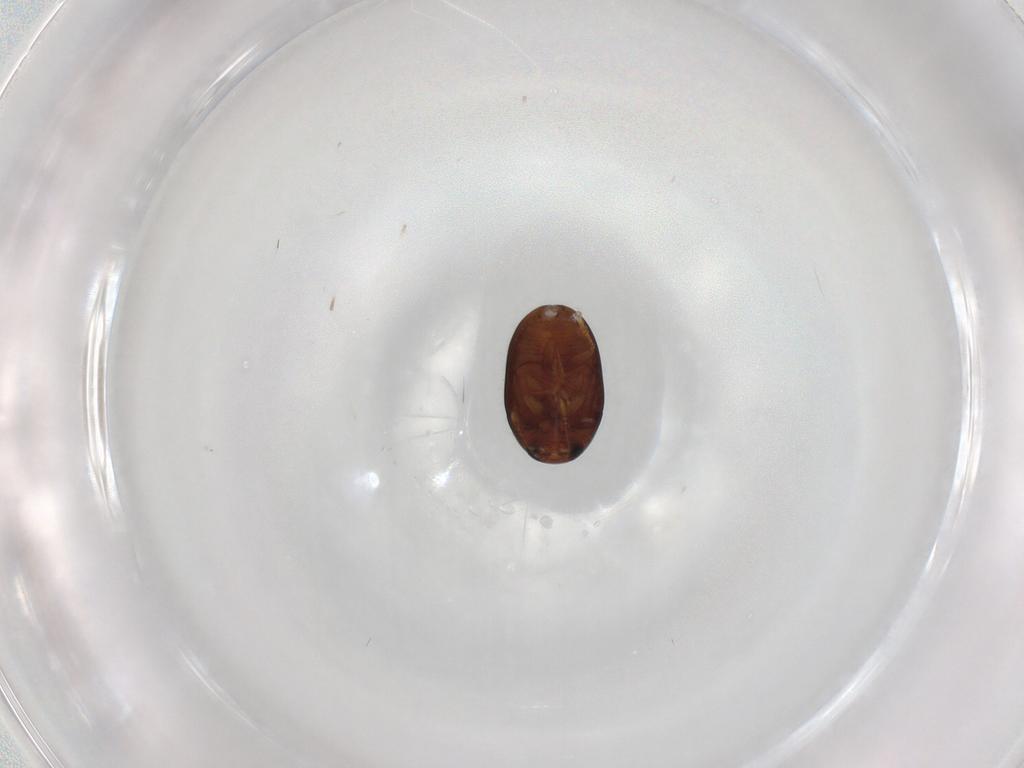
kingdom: Animalia
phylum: Arthropoda
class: Insecta
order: Coleoptera
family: Phalacridae
